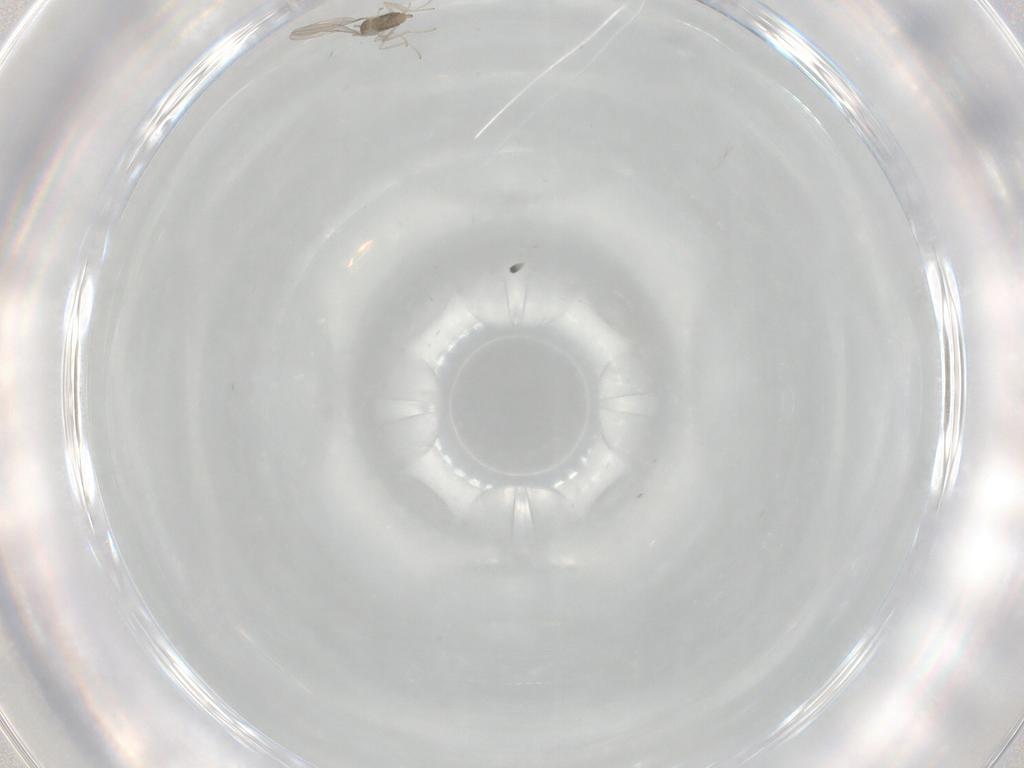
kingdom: Animalia
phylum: Arthropoda
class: Insecta
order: Diptera
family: Cecidomyiidae
